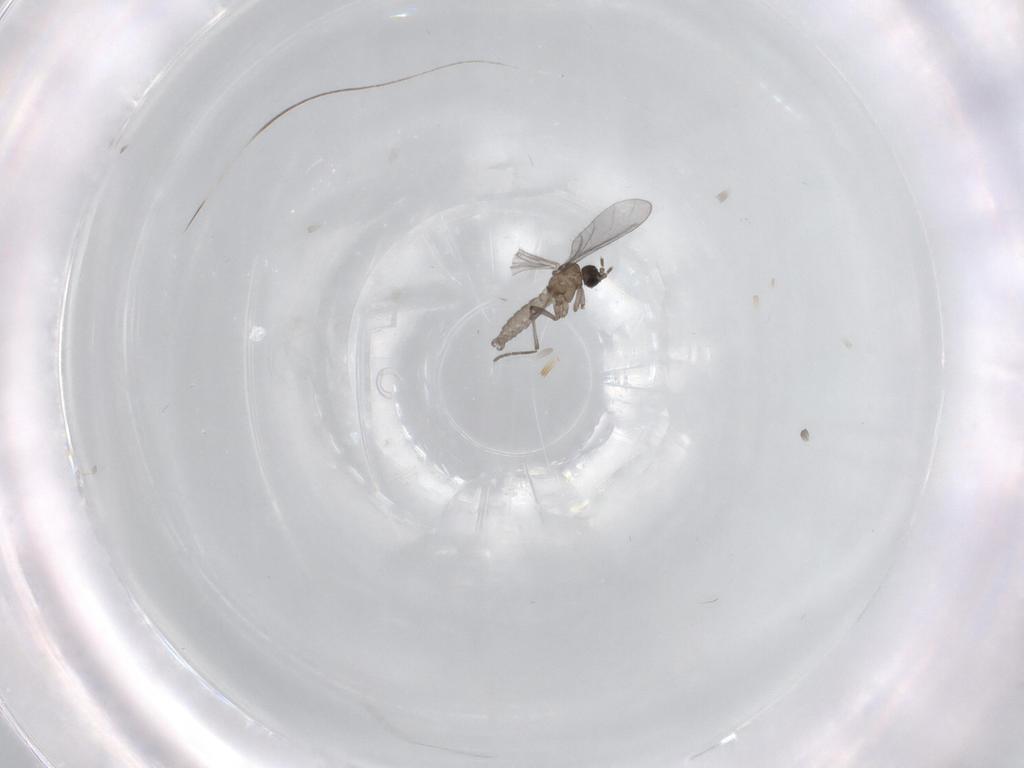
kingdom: Animalia
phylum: Arthropoda
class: Insecta
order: Diptera
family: Sciaridae
